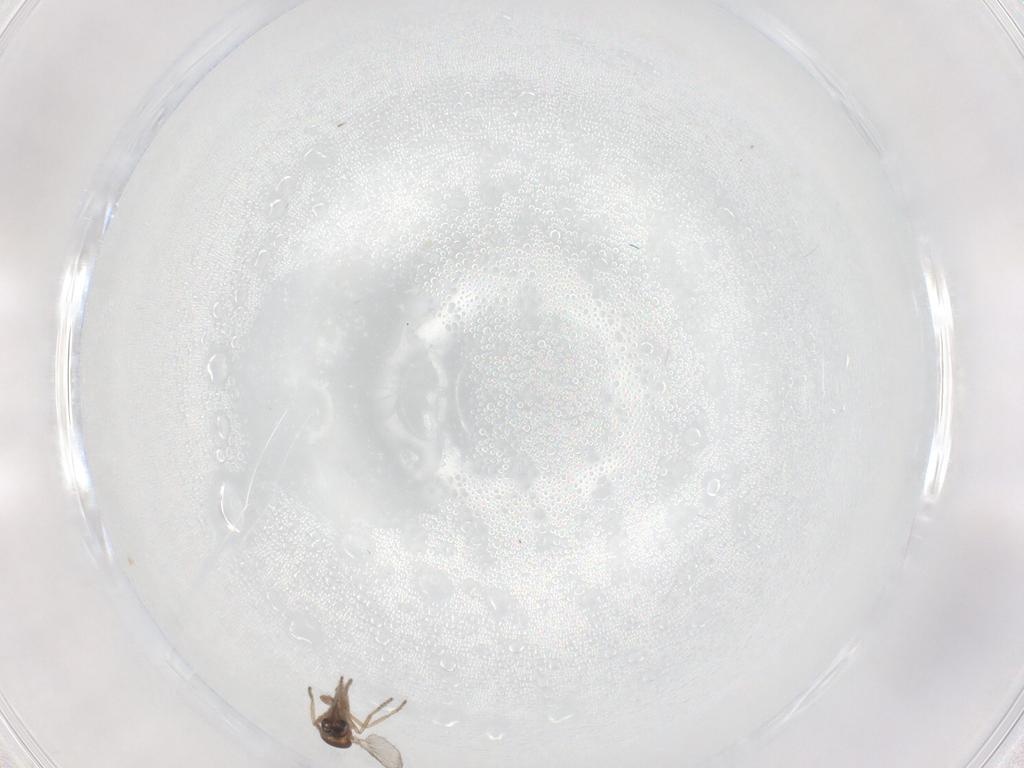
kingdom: Animalia
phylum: Arthropoda
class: Insecta
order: Diptera
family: Chironomidae
